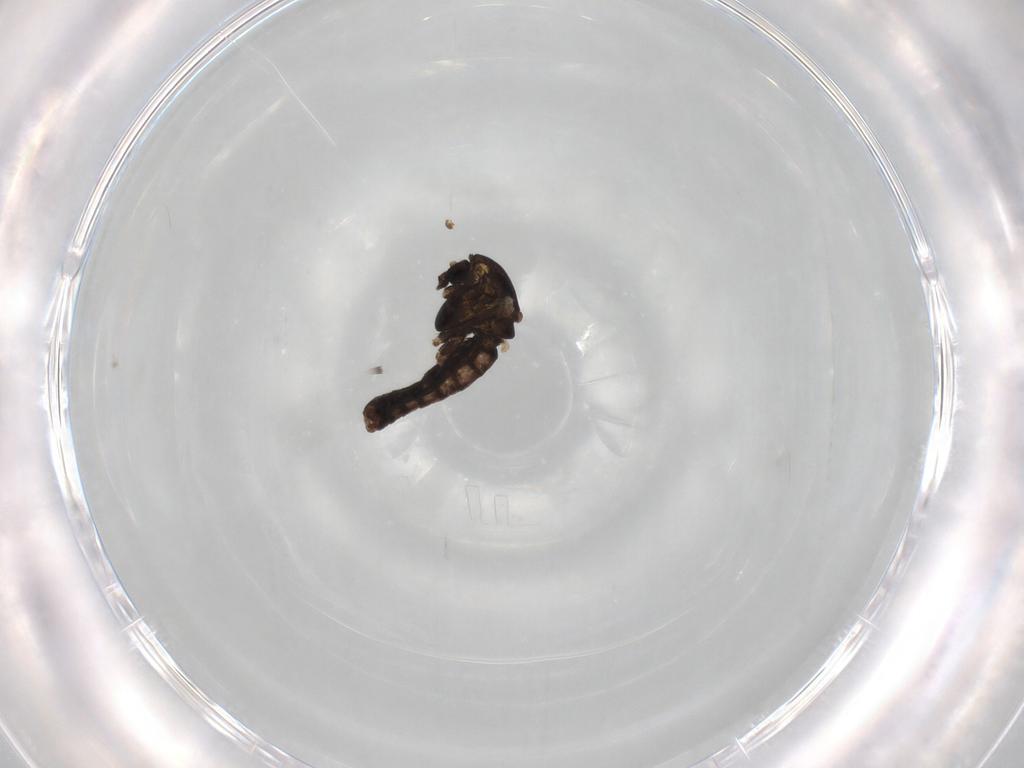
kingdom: Animalia
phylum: Arthropoda
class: Insecta
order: Diptera
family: Chironomidae
